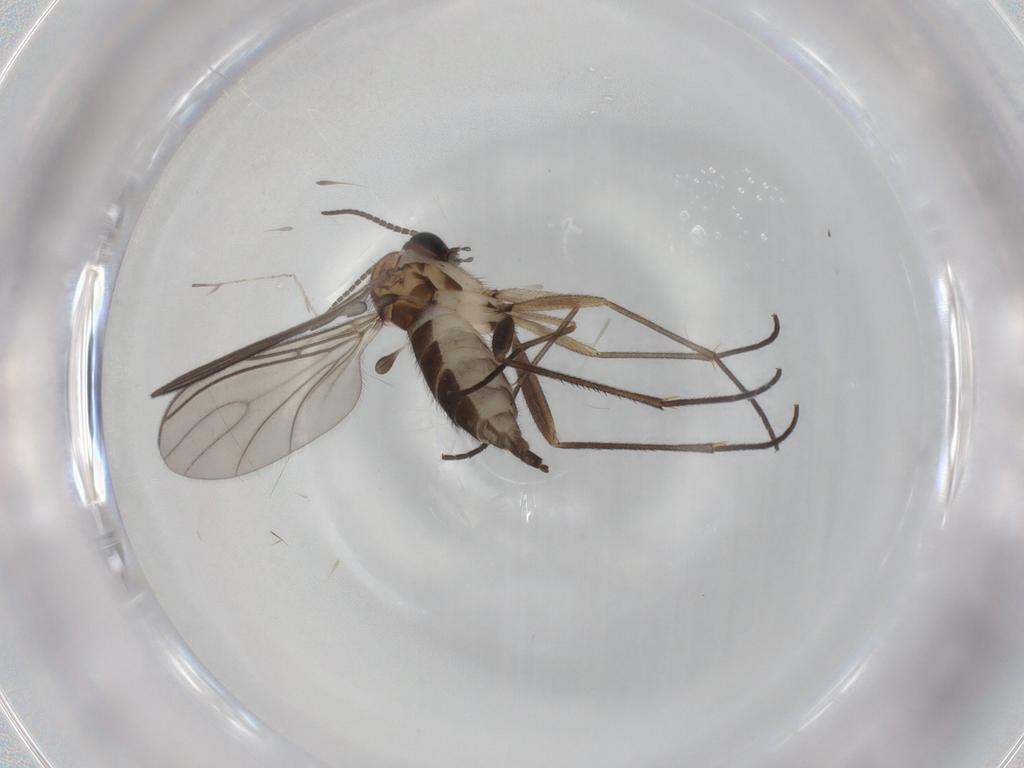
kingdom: Animalia
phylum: Arthropoda
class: Insecta
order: Diptera
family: Sciaridae
